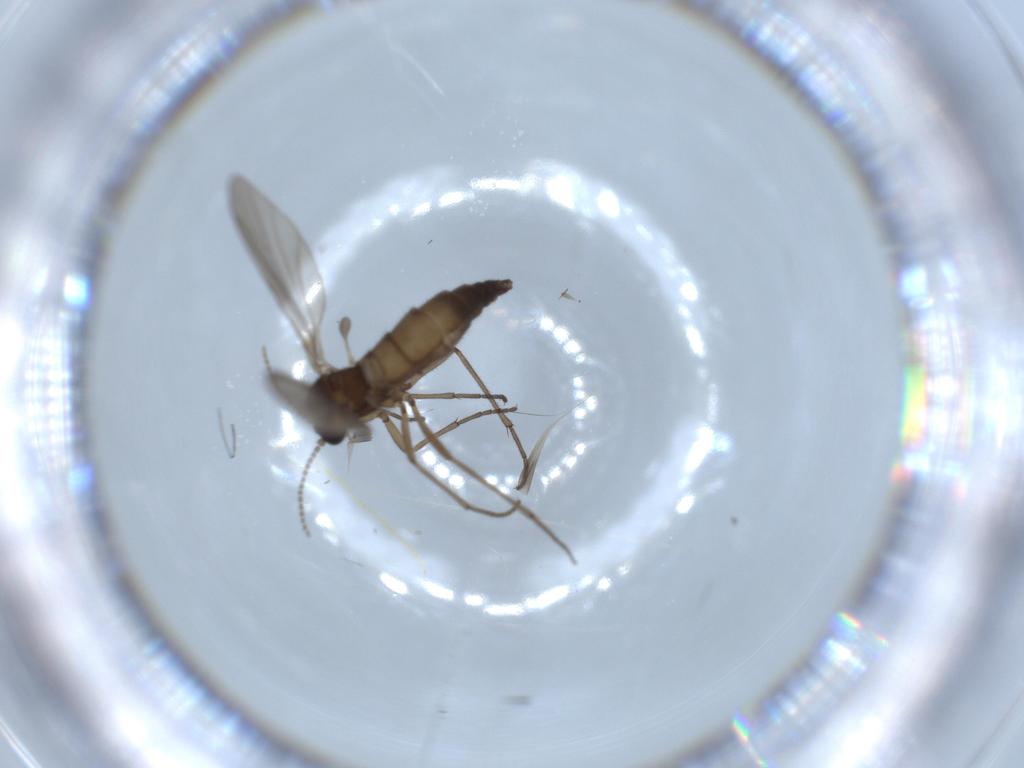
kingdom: Animalia
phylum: Arthropoda
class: Insecta
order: Diptera
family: Sciaridae
